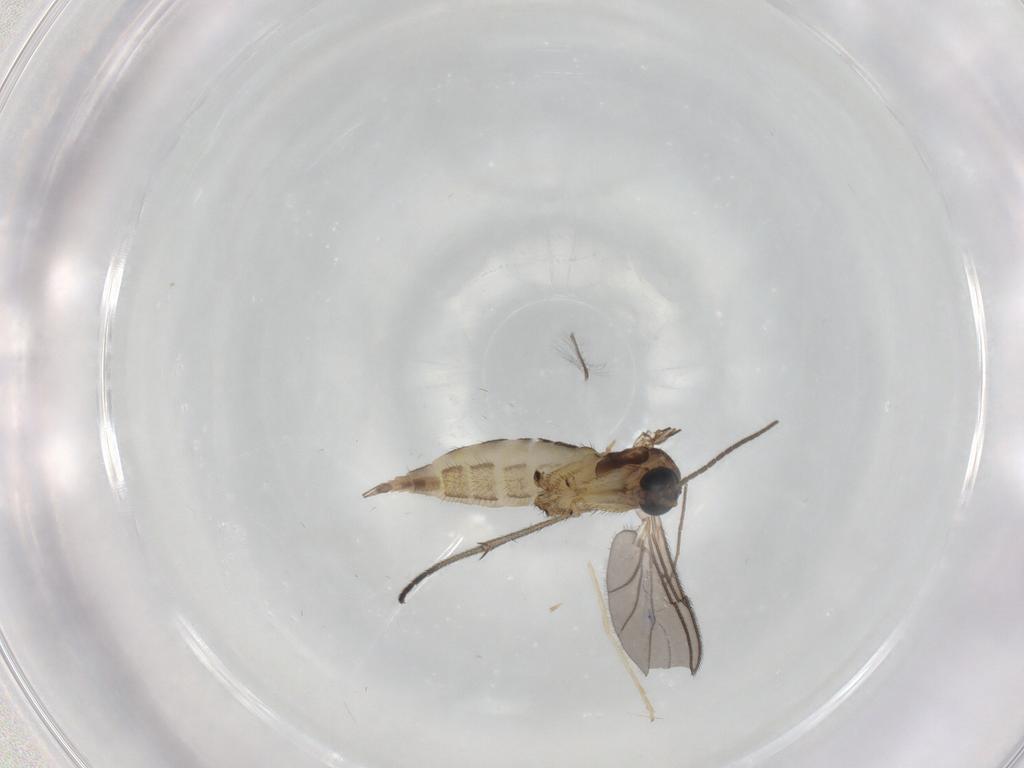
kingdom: Animalia
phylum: Arthropoda
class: Insecta
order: Diptera
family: Sciaridae
